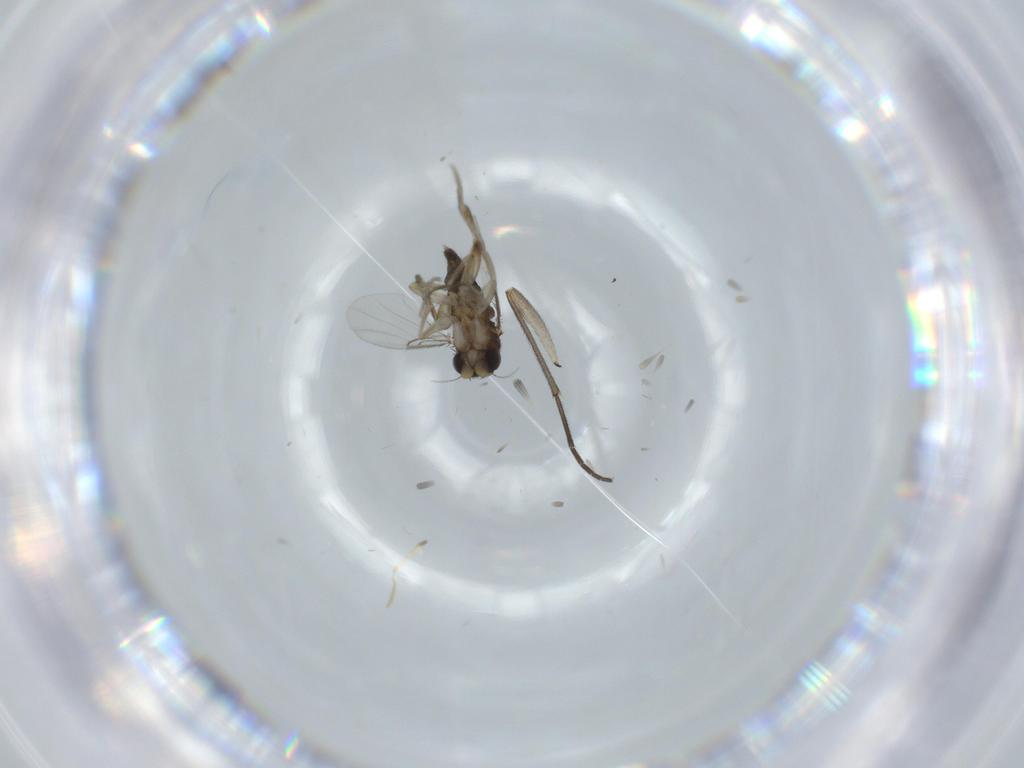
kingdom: Animalia
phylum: Arthropoda
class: Insecta
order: Diptera
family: Phoridae
